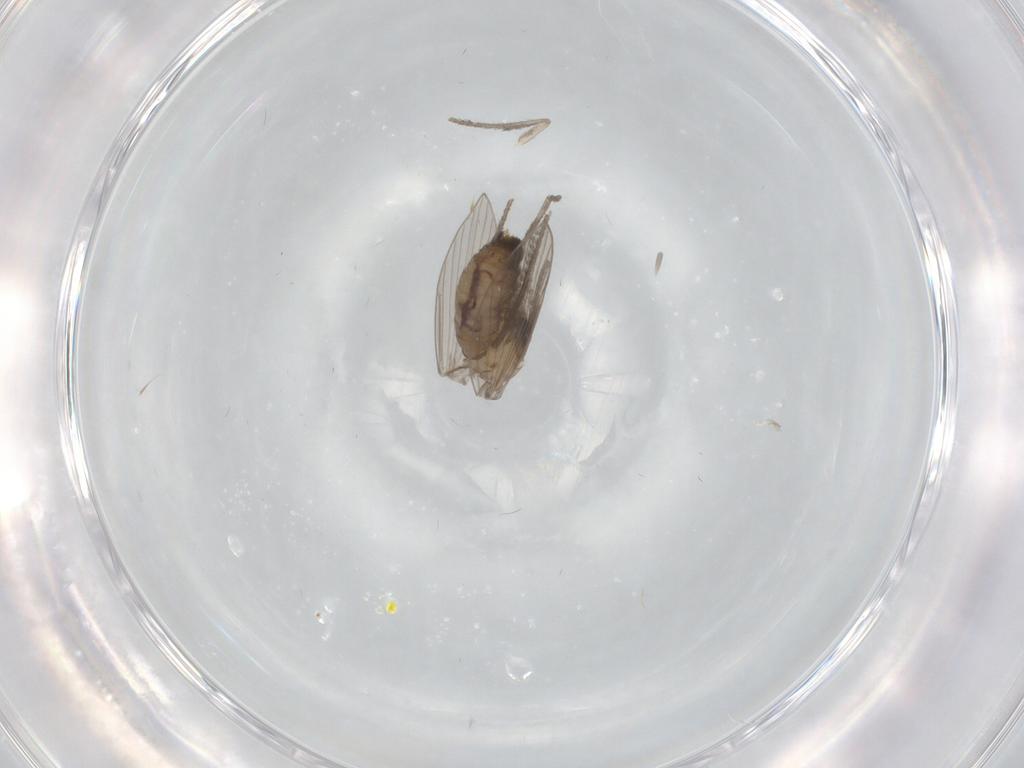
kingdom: Animalia
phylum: Arthropoda
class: Insecta
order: Diptera
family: Psychodidae
